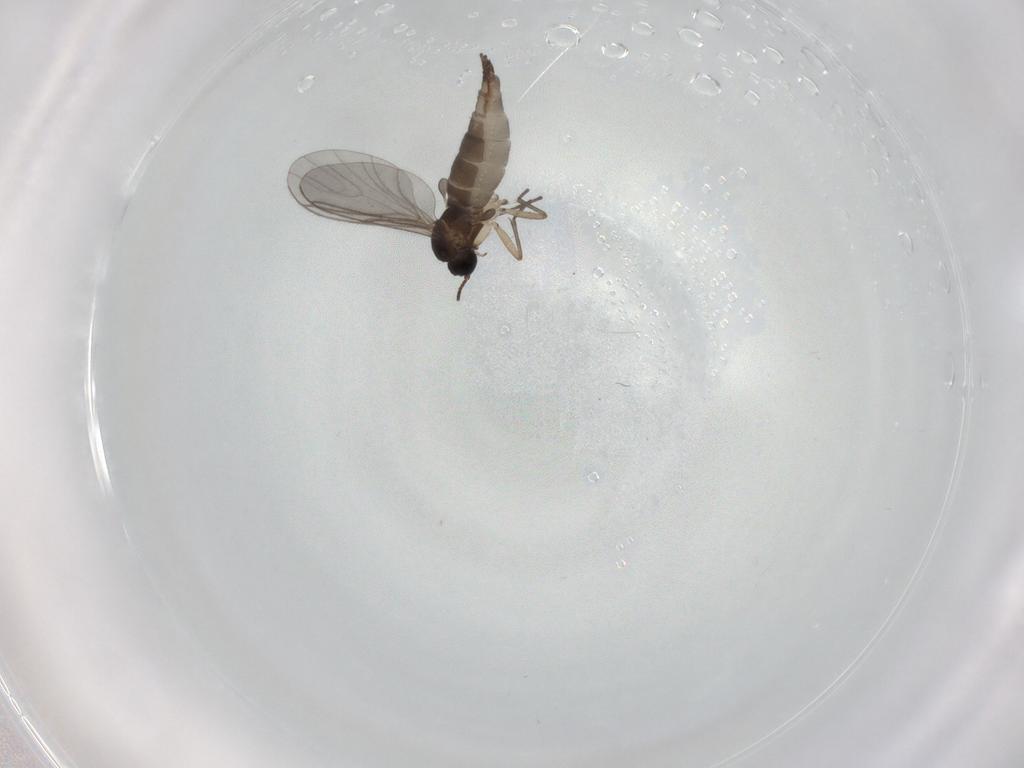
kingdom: Animalia
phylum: Arthropoda
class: Insecta
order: Diptera
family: Sciaridae
